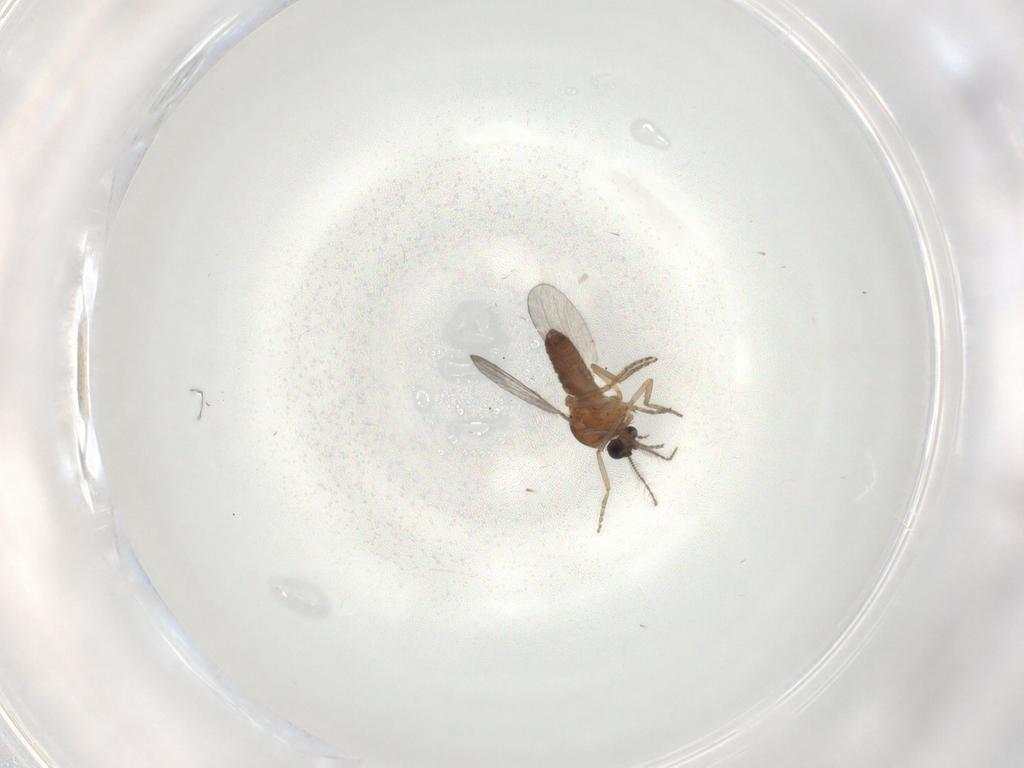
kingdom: Animalia
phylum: Arthropoda
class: Insecta
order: Diptera
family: Ceratopogonidae
